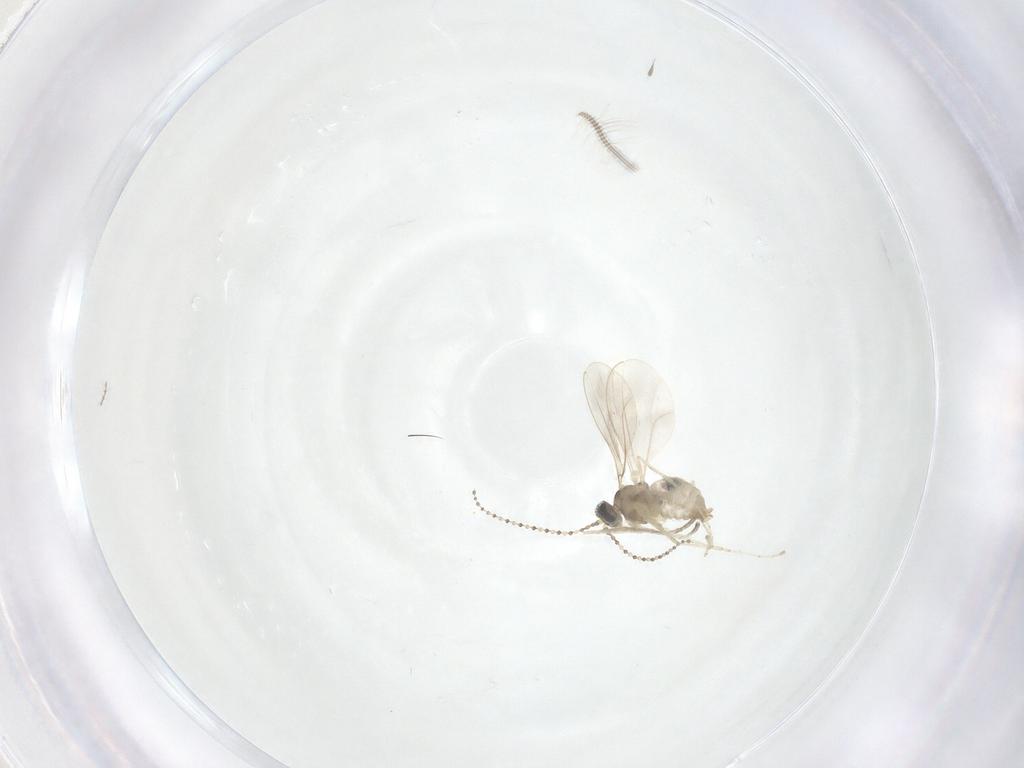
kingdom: Animalia
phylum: Arthropoda
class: Insecta
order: Diptera
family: Cecidomyiidae
